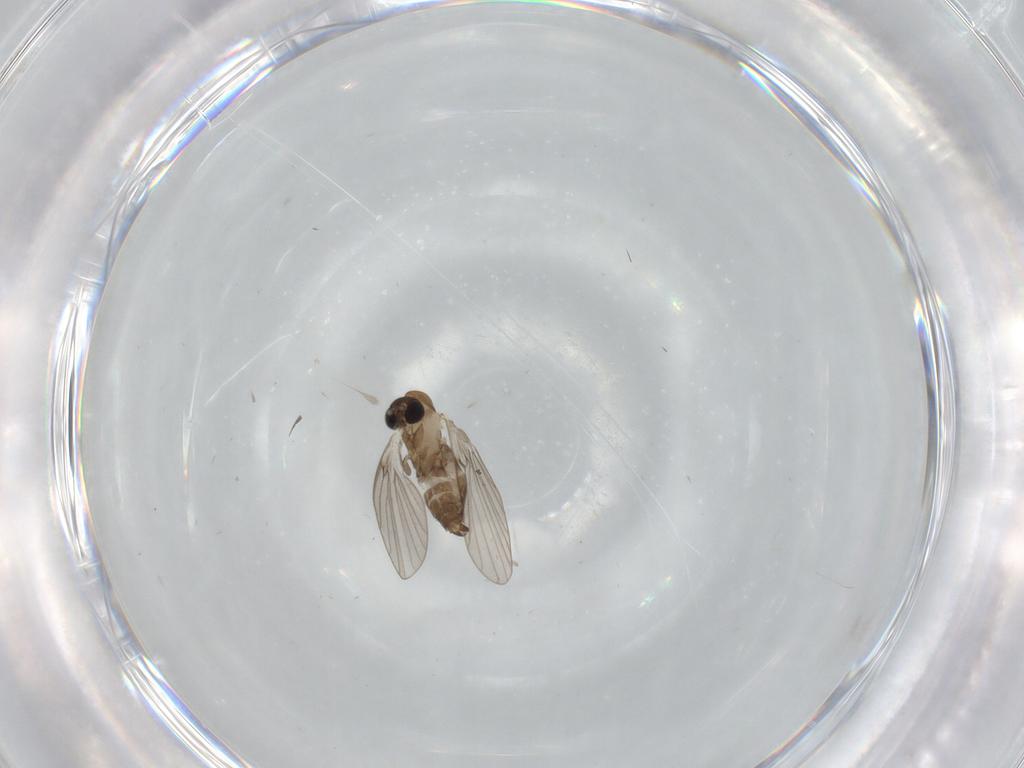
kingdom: Animalia
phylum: Arthropoda
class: Insecta
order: Diptera
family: Psychodidae
